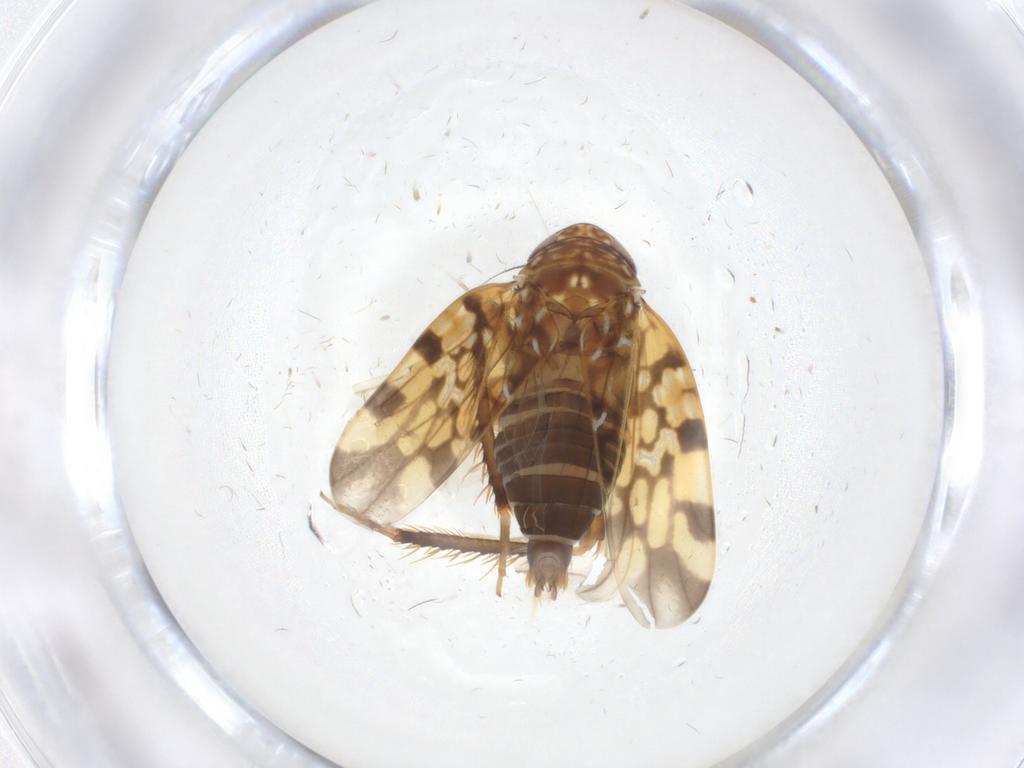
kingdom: Animalia
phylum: Arthropoda
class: Insecta
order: Hemiptera
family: Cicadellidae
